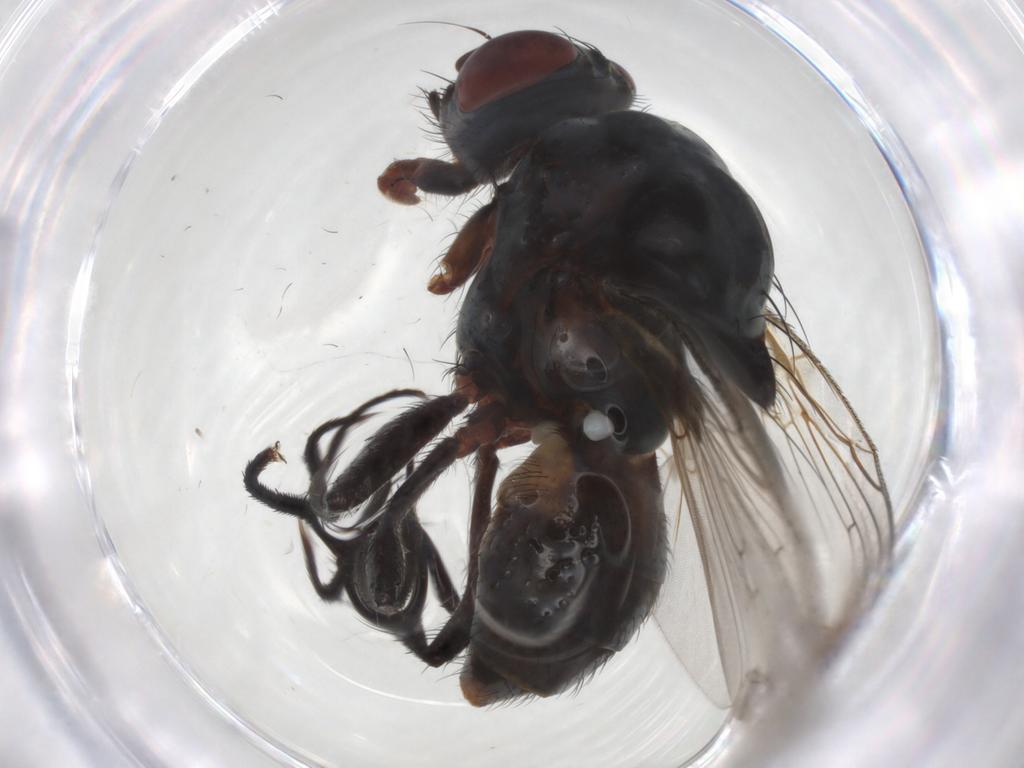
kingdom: Animalia
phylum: Arthropoda
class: Insecta
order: Diptera
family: Anthomyiidae
